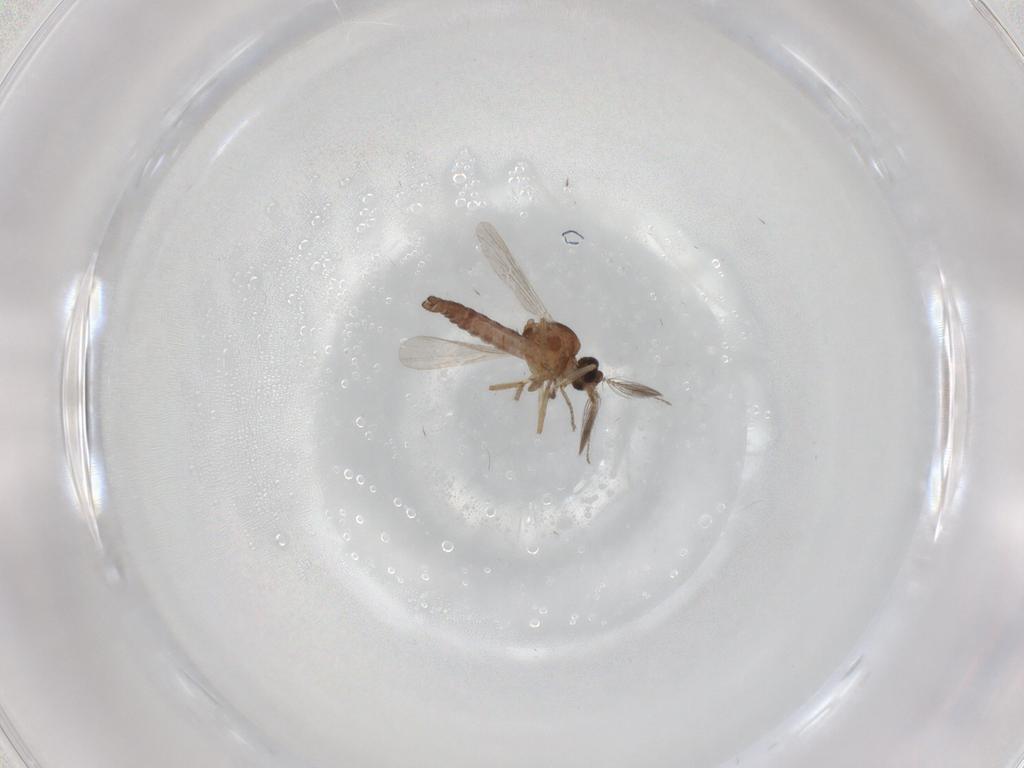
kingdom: Animalia
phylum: Arthropoda
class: Insecta
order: Diptera
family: Ceratopogonidae
